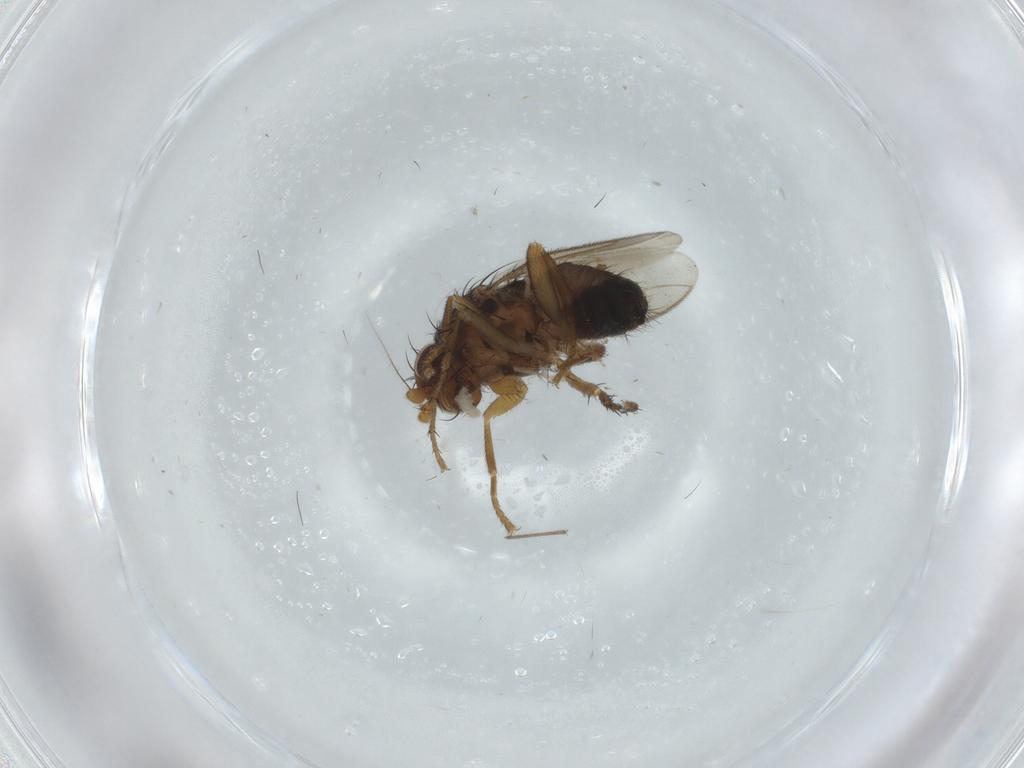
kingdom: Animalia
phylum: Arthropoda
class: Insecta
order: Diptera
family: Sphaeroceridae
